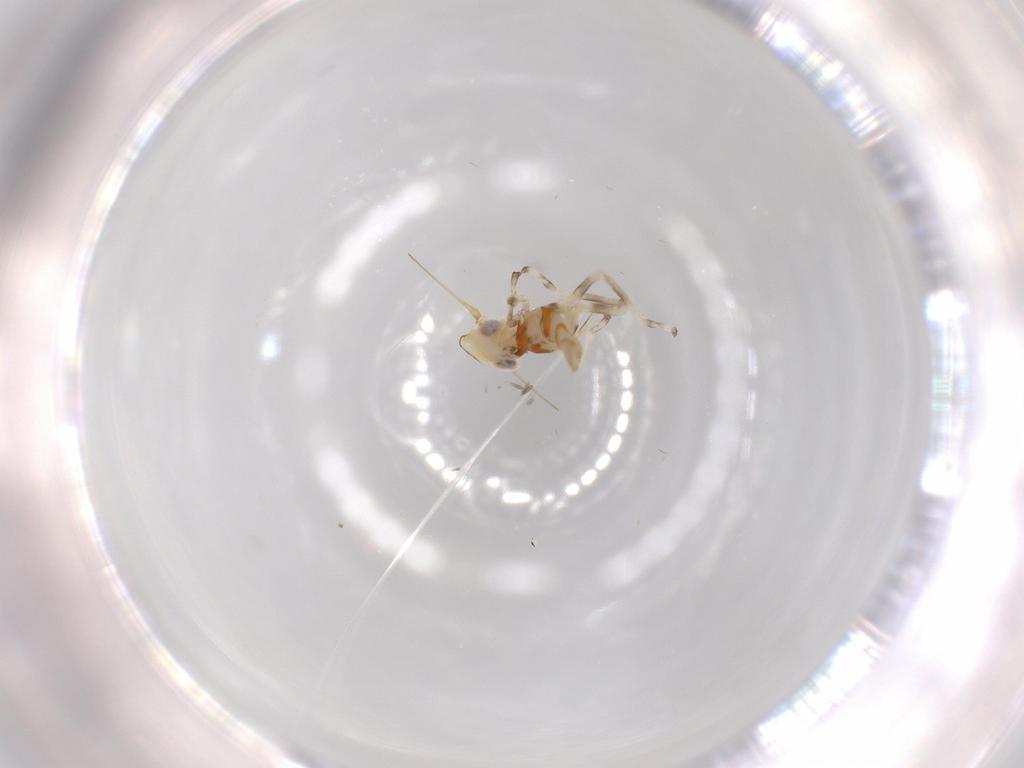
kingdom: Animalia
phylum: Arthropoda
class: Insecta
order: Hemiptera
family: Cicadellidae
